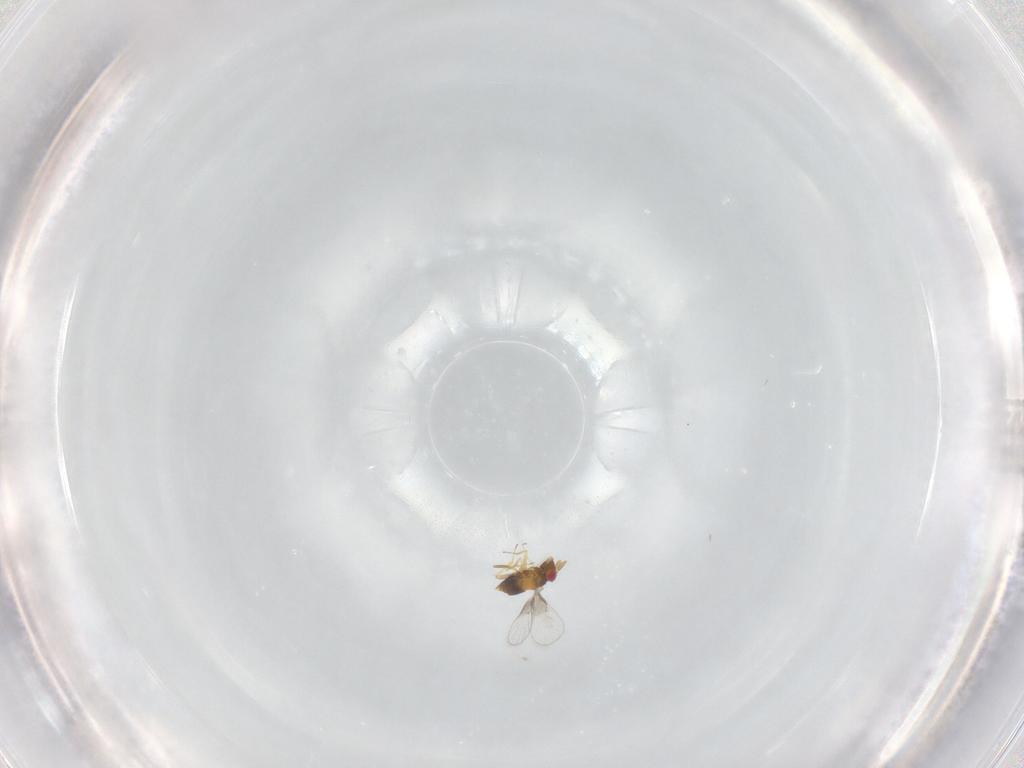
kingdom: Animalia
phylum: Arthropoda
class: Insecta
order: Hymenoptera
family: Trichogrammatidae
